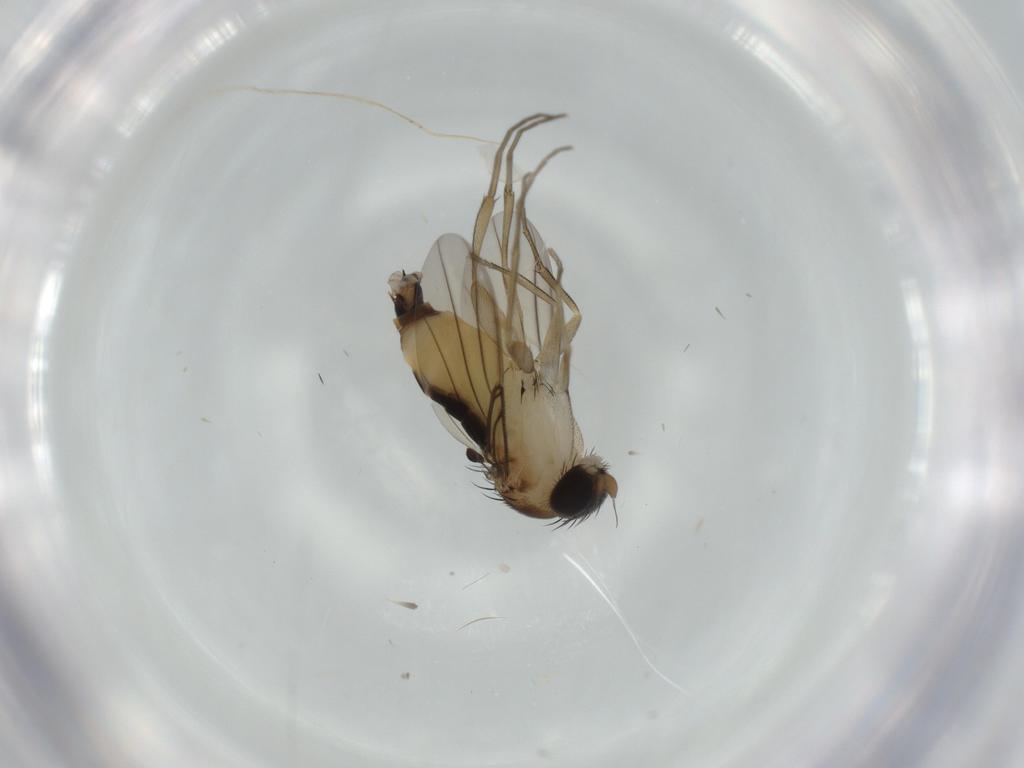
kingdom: Animalia
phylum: Arthropoda
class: Insecta
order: Diptera
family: Phoridae
